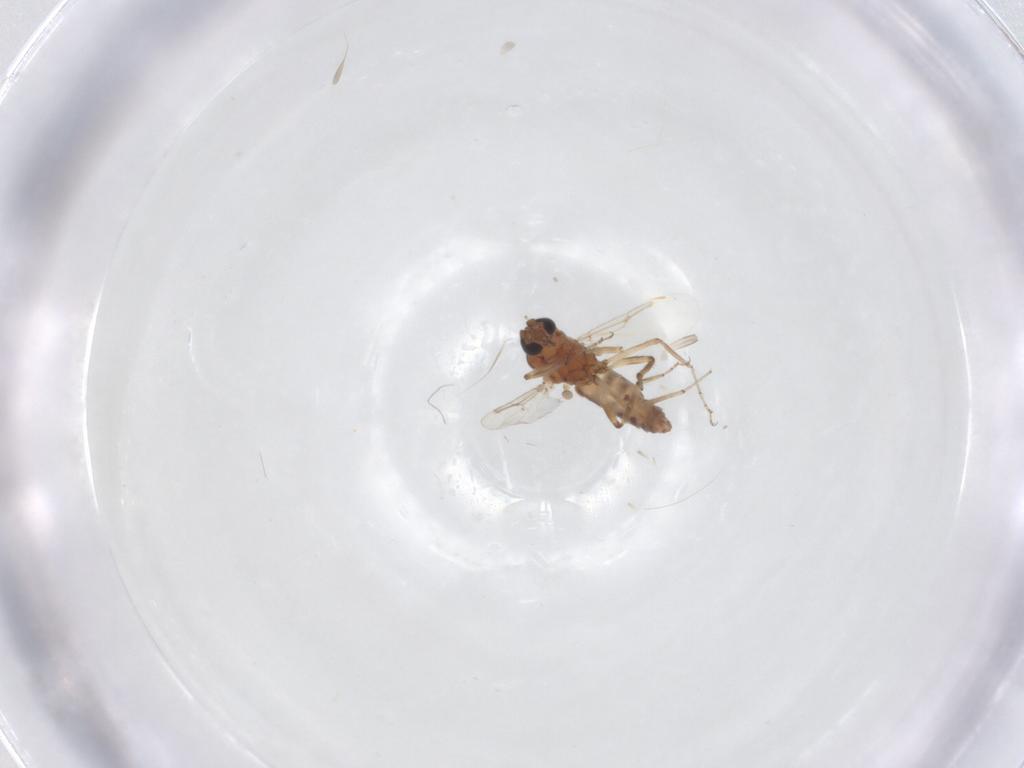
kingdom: Animalia
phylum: Arthropoda
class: Insecta
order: Diptera
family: Ceratopogonidae
